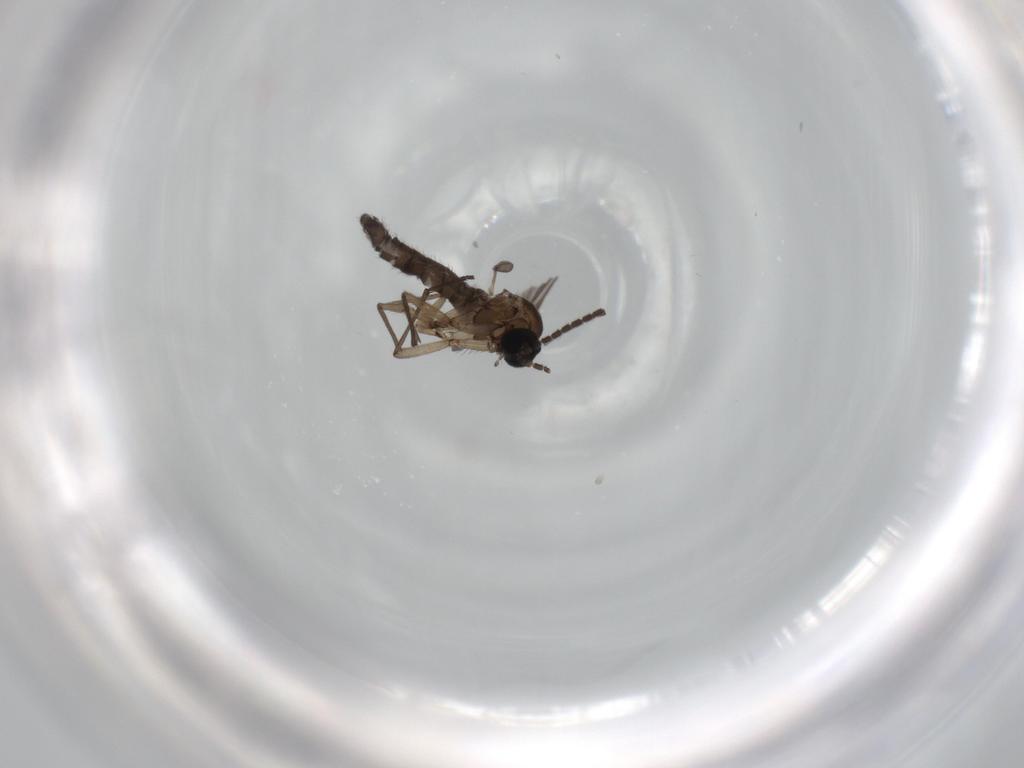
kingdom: Animalia
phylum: Arthropoda
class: Insecta
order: Diptera
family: Sciaridae
